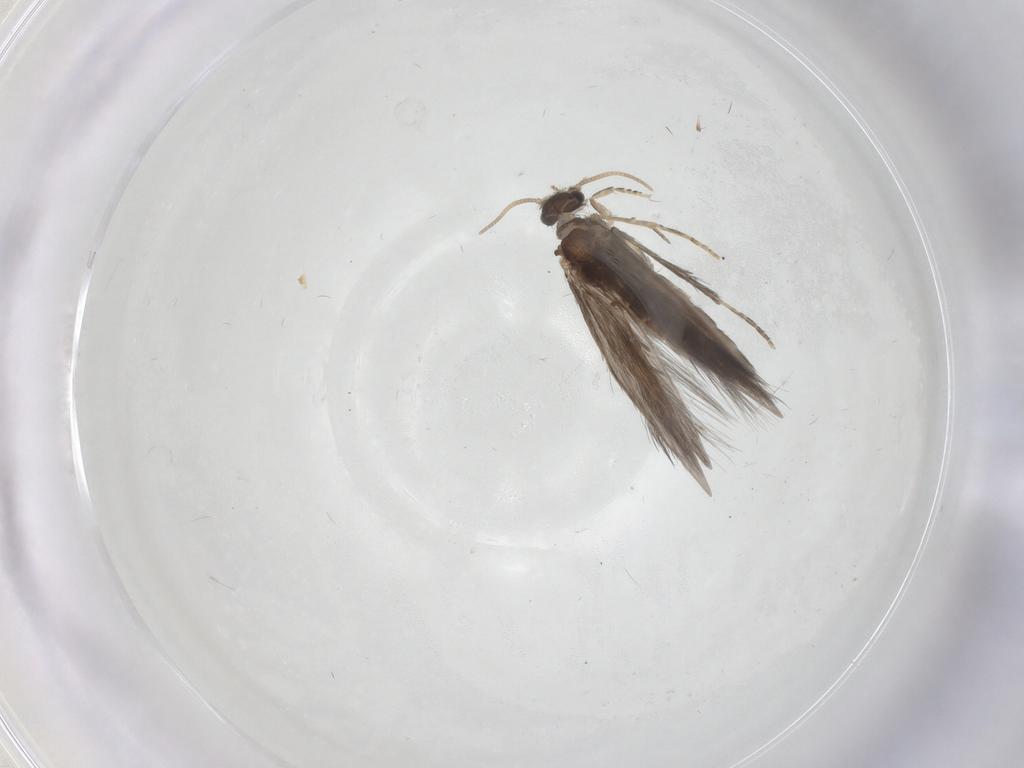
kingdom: Animalia
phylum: Arthropoda
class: Insecta
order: Trichoptera
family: Hydroptilidae
